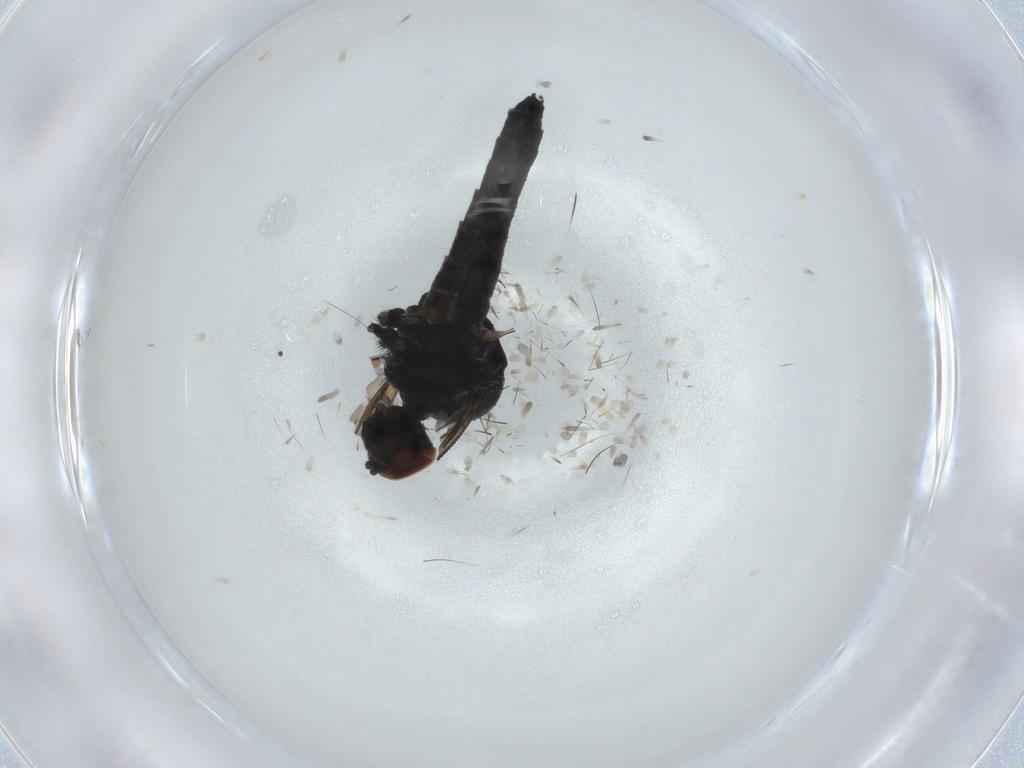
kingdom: Animalia
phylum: Arthropoda
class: Insecta
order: Diptera
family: Hybotidae
